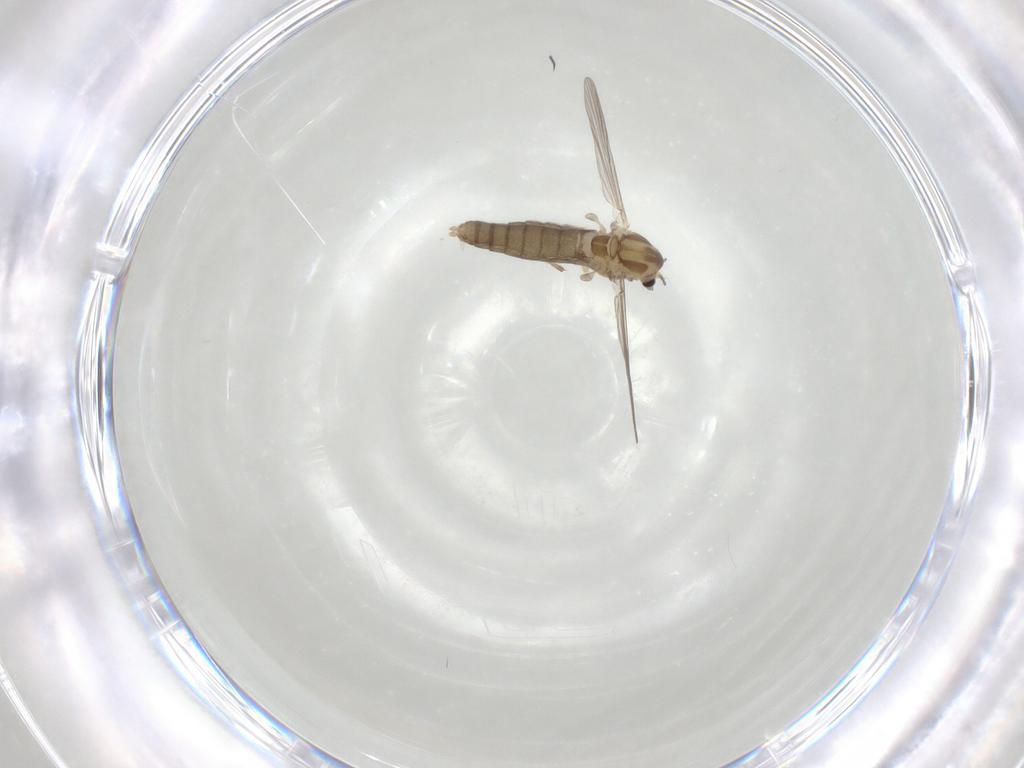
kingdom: Animalia
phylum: Arthropoda
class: Insecta
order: Diptera
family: Chironomidae
